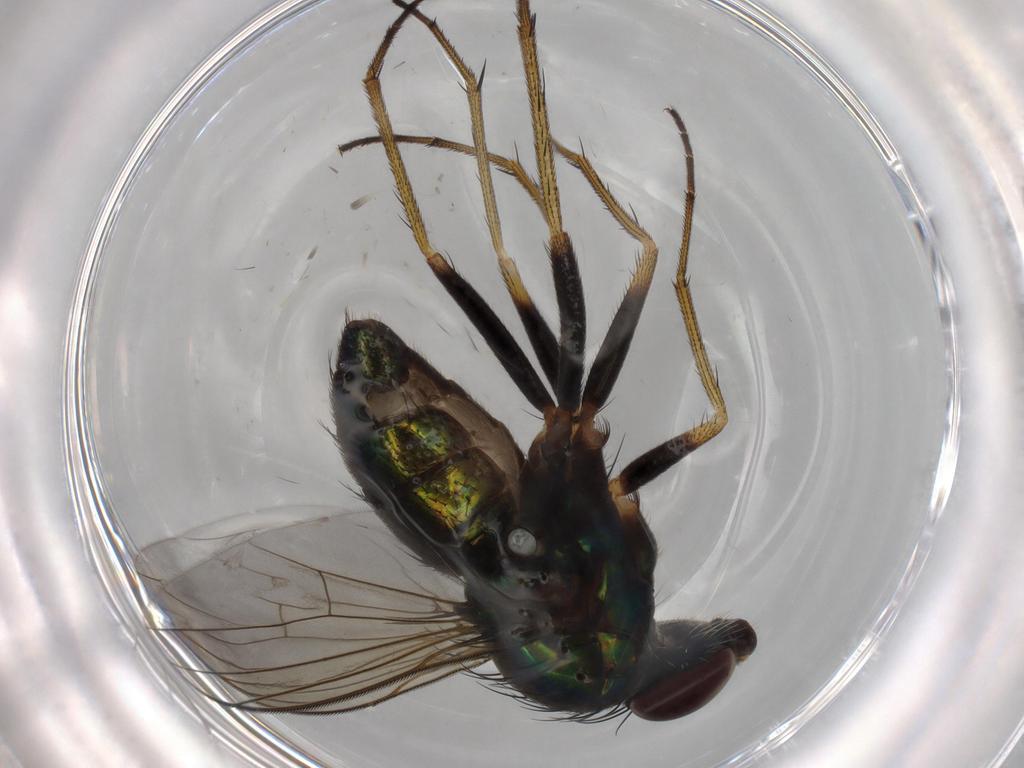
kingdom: Animalia
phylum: Arthropoda
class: Insecta
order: Diptera
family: Dolichopodidae
